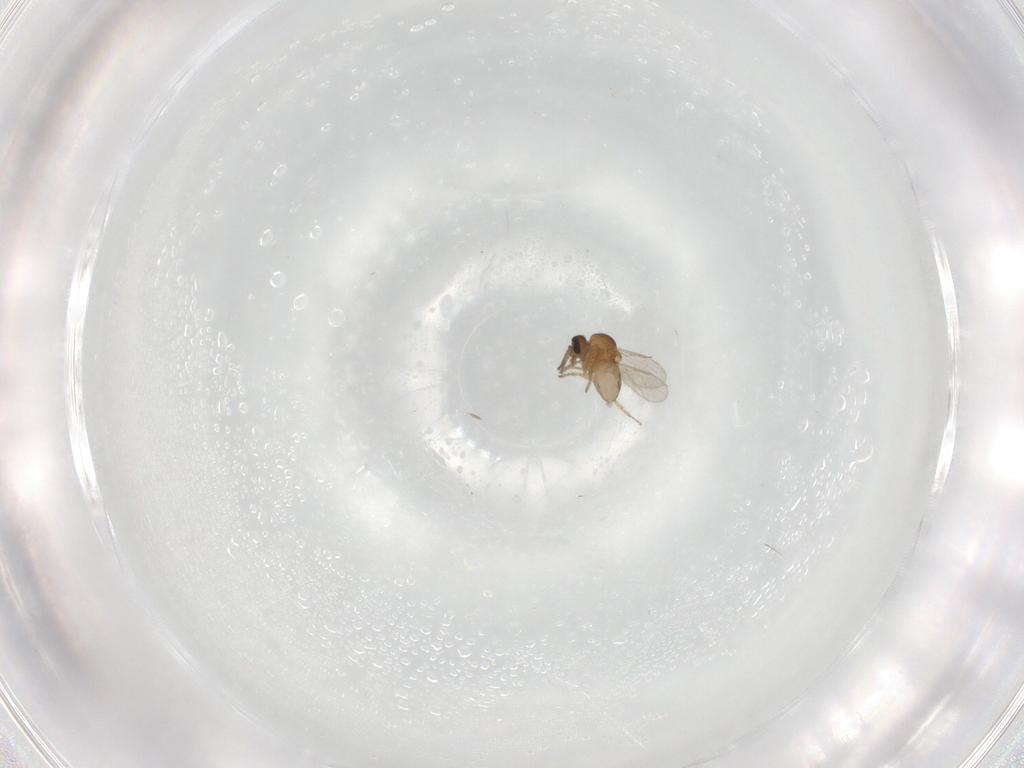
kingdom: Animalia
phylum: Arthropoda
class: Insecta
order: Diptera
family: Ceratopogonidae
